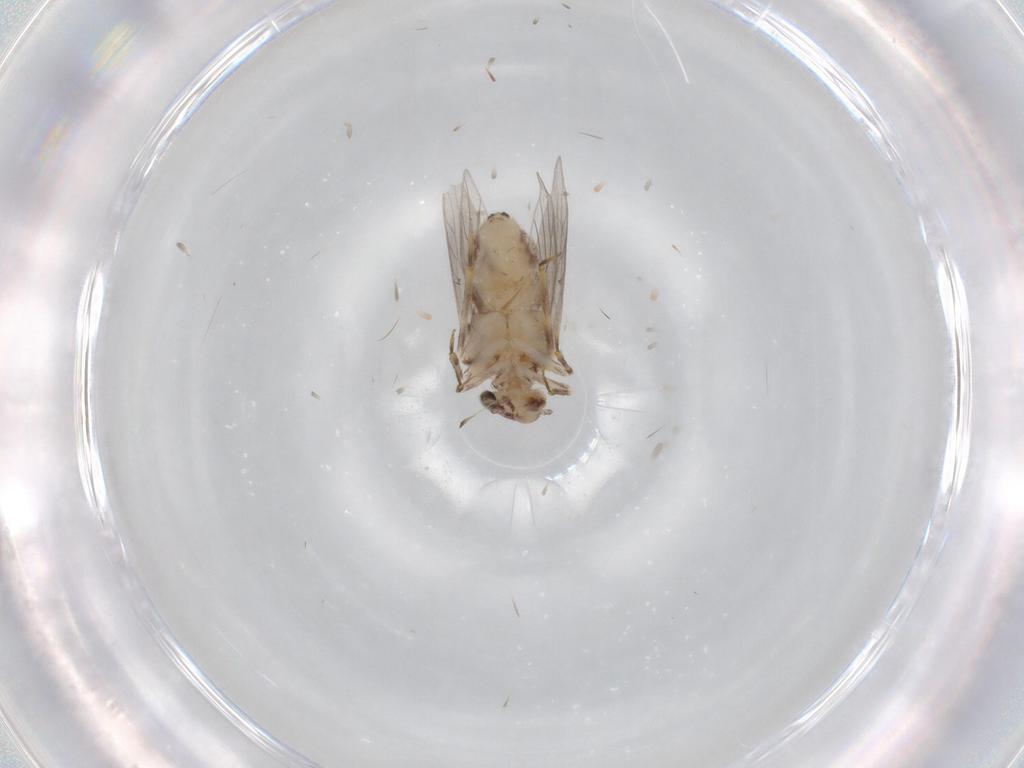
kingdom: Animalia
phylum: Arthropoda
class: Insecta
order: Psocodea
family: Lepidopsocidae
